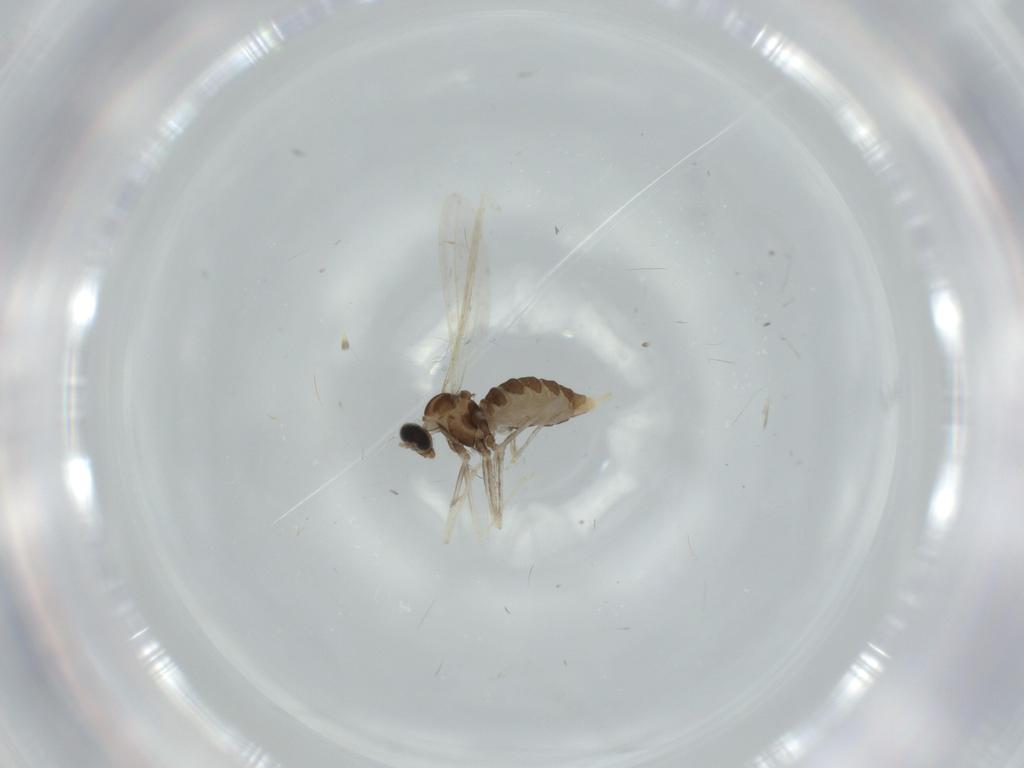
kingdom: Animalia
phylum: Arthropoda
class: Insecta
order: Diptera
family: Cecidomyiidae
